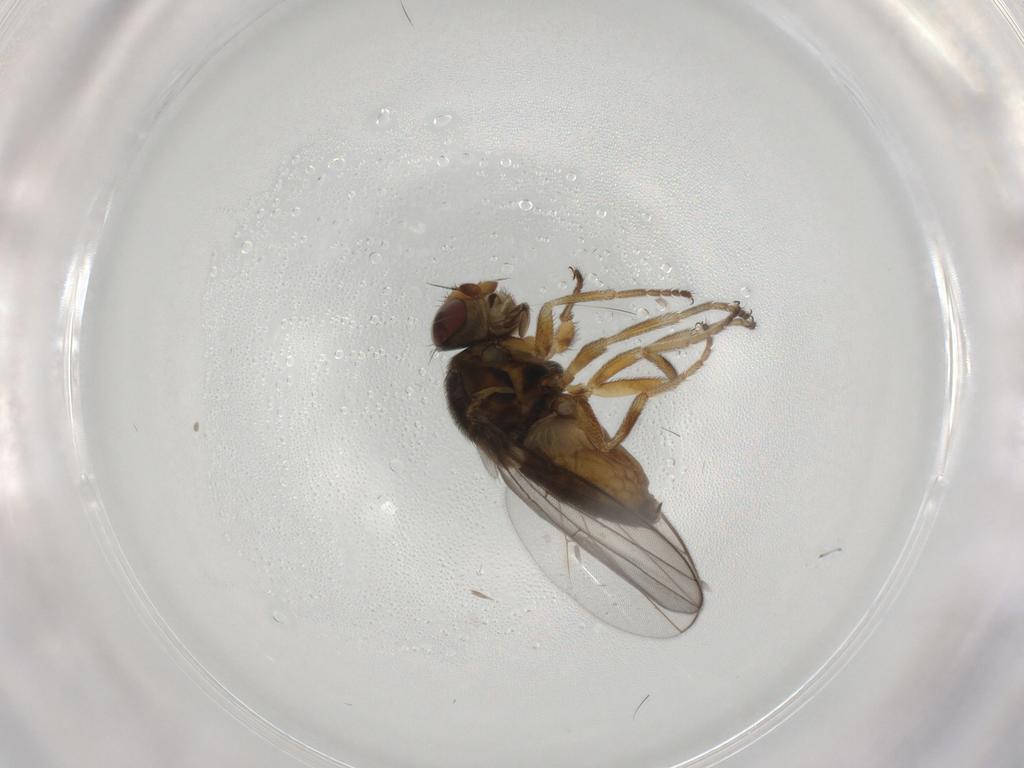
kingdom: Animalia
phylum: Arthropoda
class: Insecta
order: Diptera
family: Chloropidae
